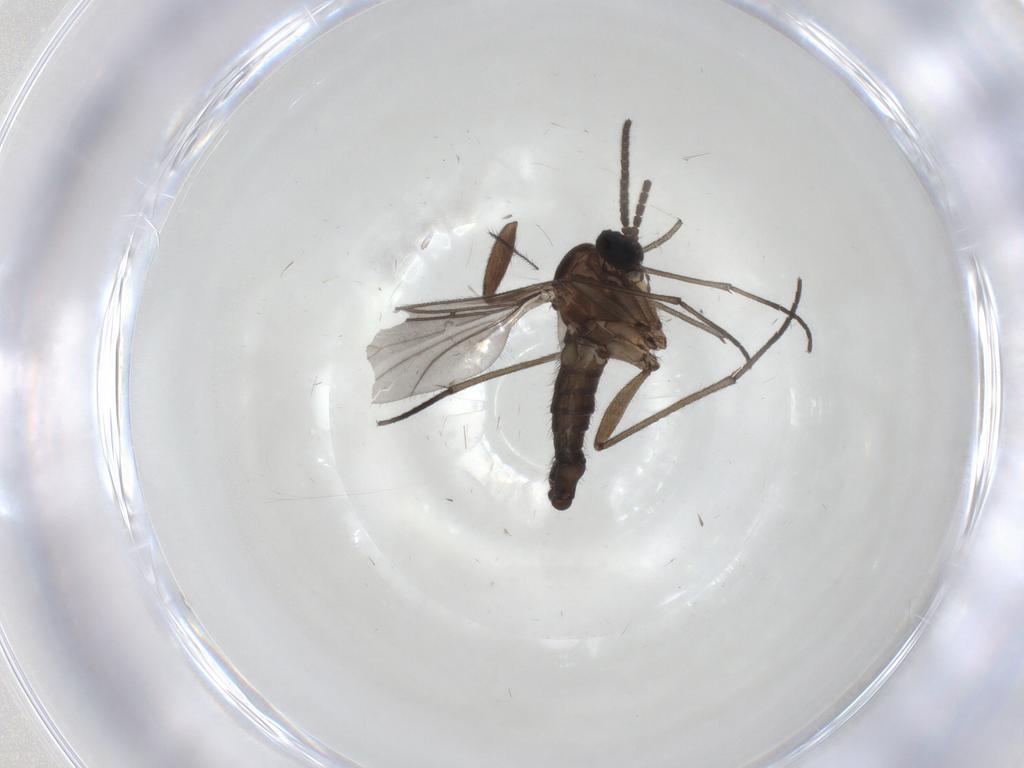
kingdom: Animalia
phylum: Arthropoda
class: Insecta
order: Diptera
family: Sciaridae
